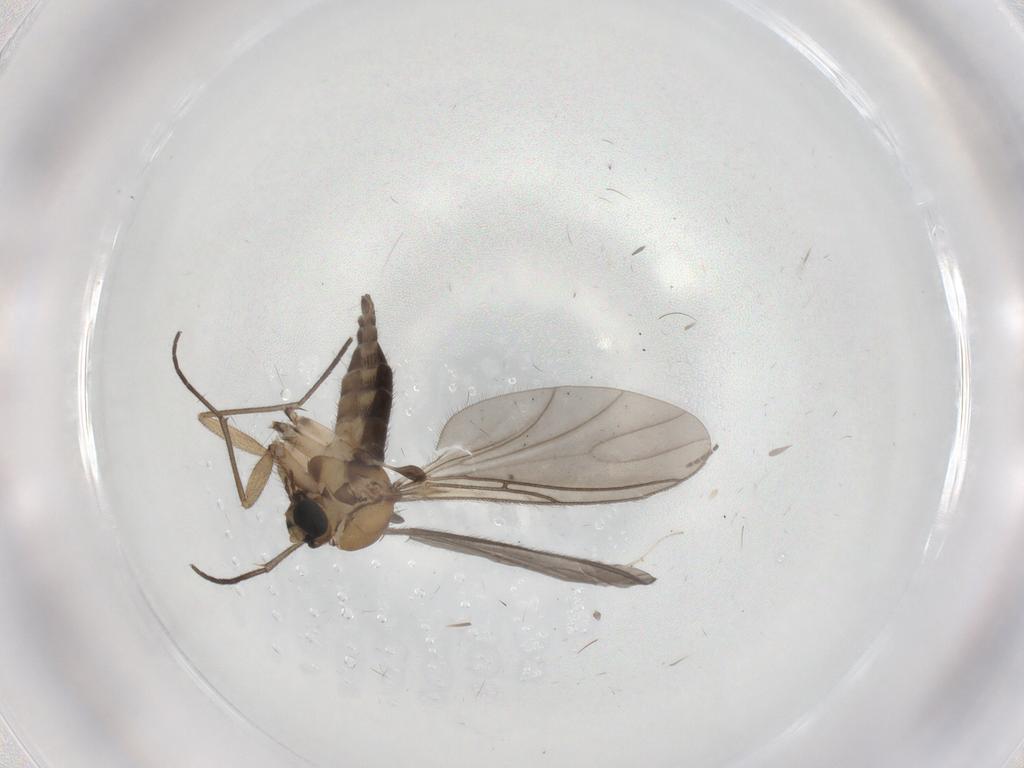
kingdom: Animalia
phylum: Arthropoda
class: Insecta
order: Diptera
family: Sciaridae
